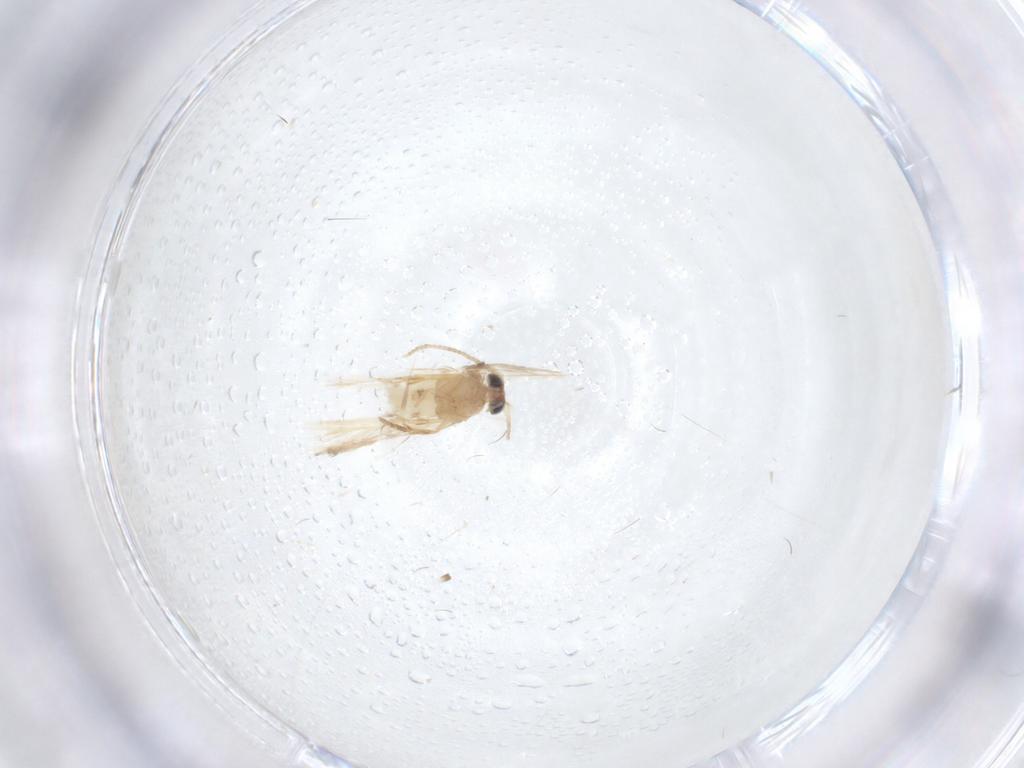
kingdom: Animalia
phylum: Arthropoda
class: Insecta
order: Lepidoptera
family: Nepticulidae
